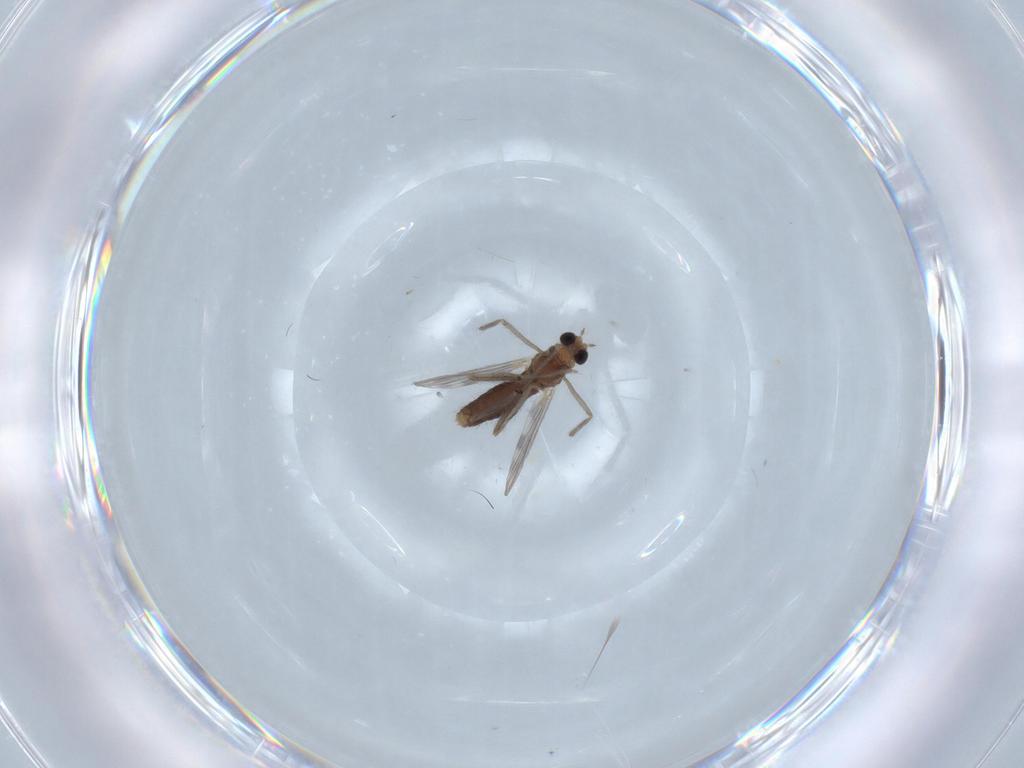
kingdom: Animalia
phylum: Arthropoda
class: Insecta
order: Diptera
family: Chironomidae
